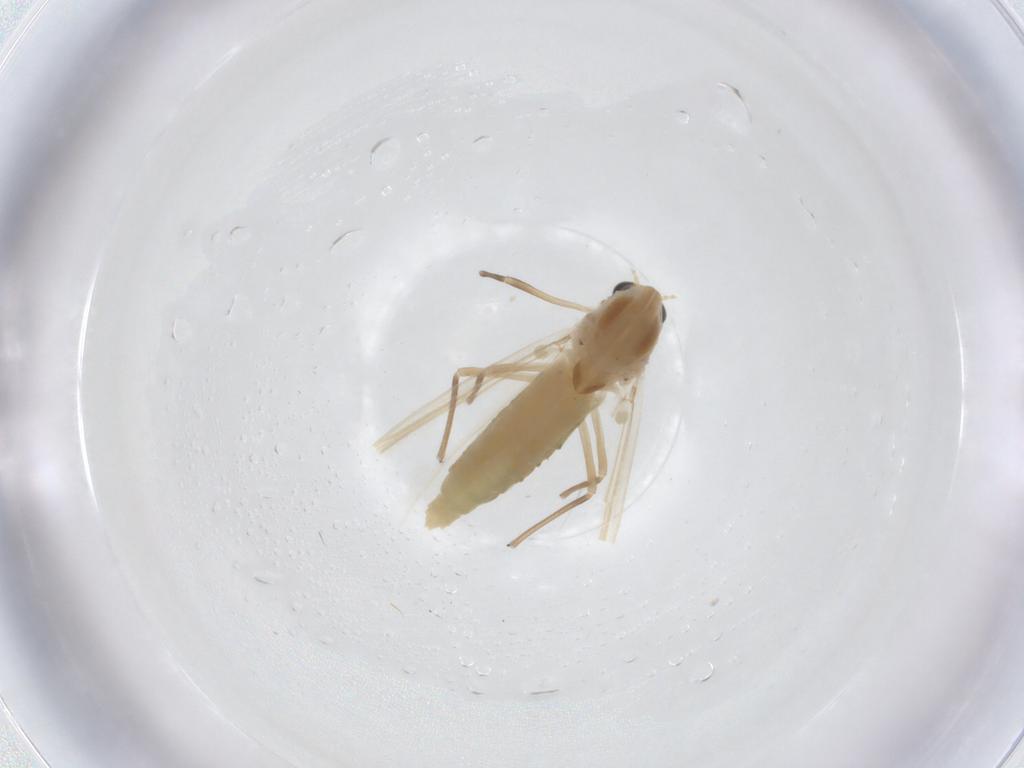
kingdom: Animalia
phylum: Arthropoda
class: Insecta
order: Diptera
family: Chironomidae
